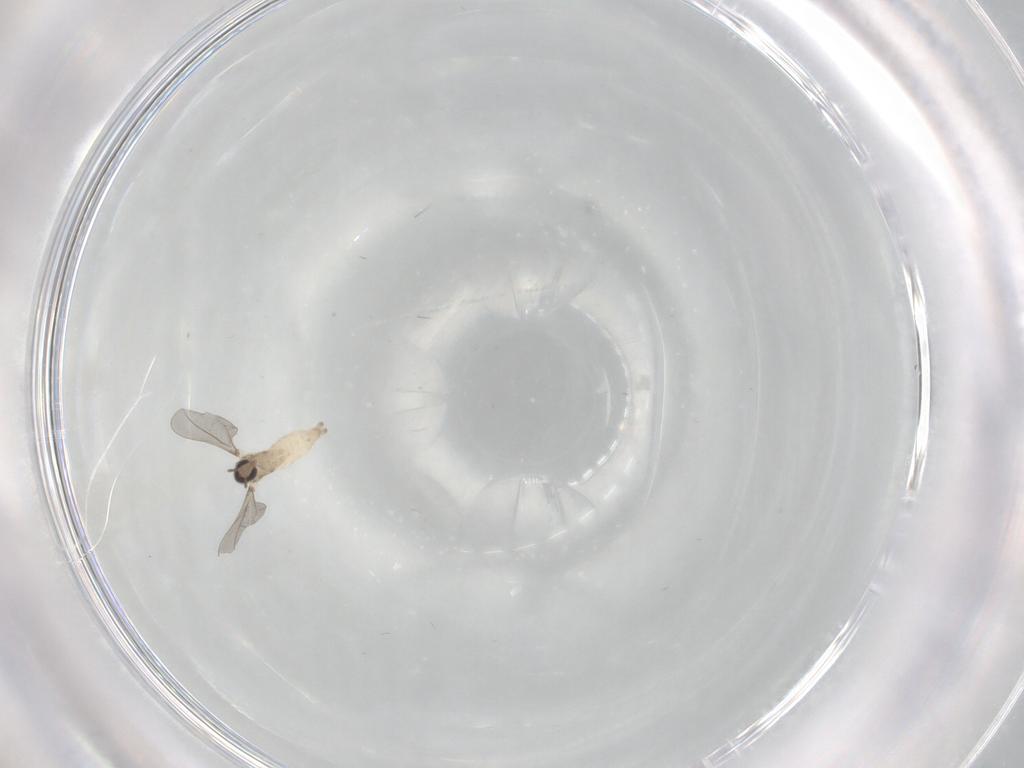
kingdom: Animalia
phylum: Arthropoda
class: Insecta
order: Diptera
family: Phoridae
